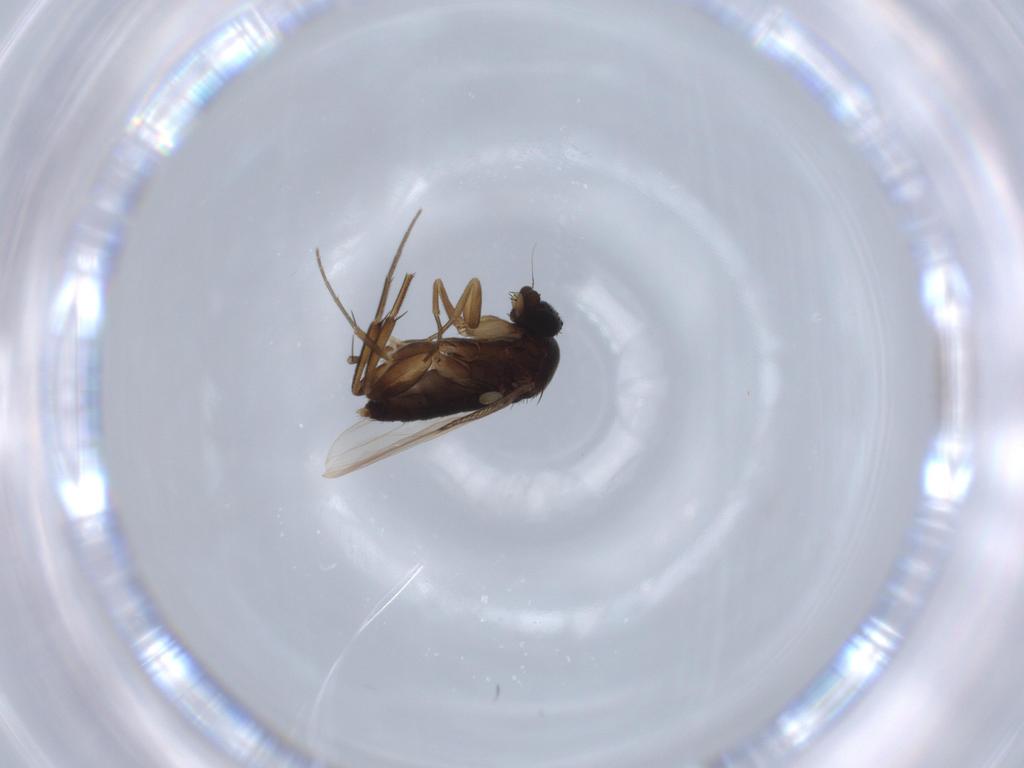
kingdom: Animalia
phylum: Arthropoda
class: Insecta
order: Diptera
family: Phoridae
